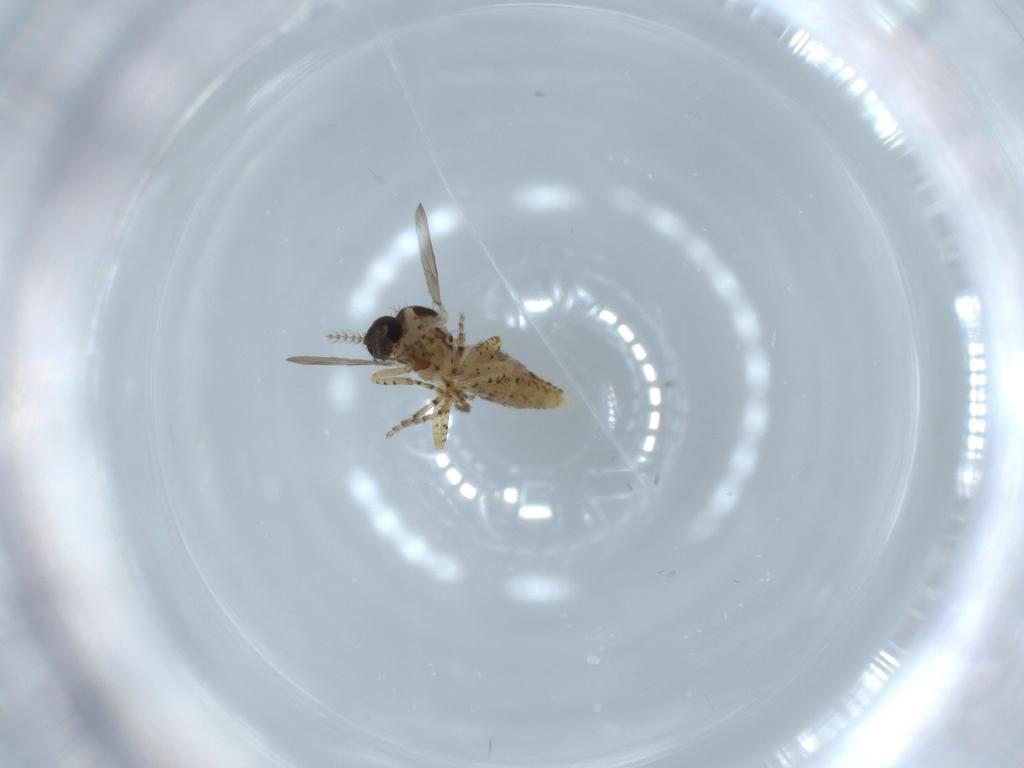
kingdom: Animalia
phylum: Arthropoda
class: Insecta
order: Diptera
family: Ceratopogonidae
